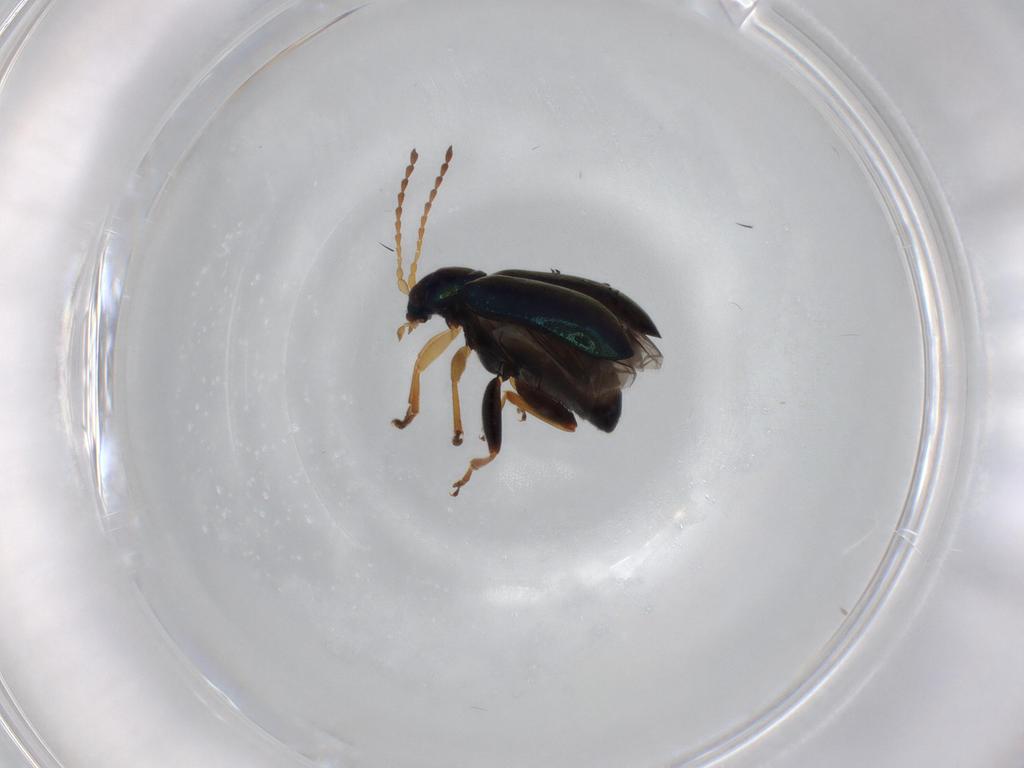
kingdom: Animalia
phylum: Arthropoda
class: Insecta
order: Coleoptera
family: Chrysomelidae
